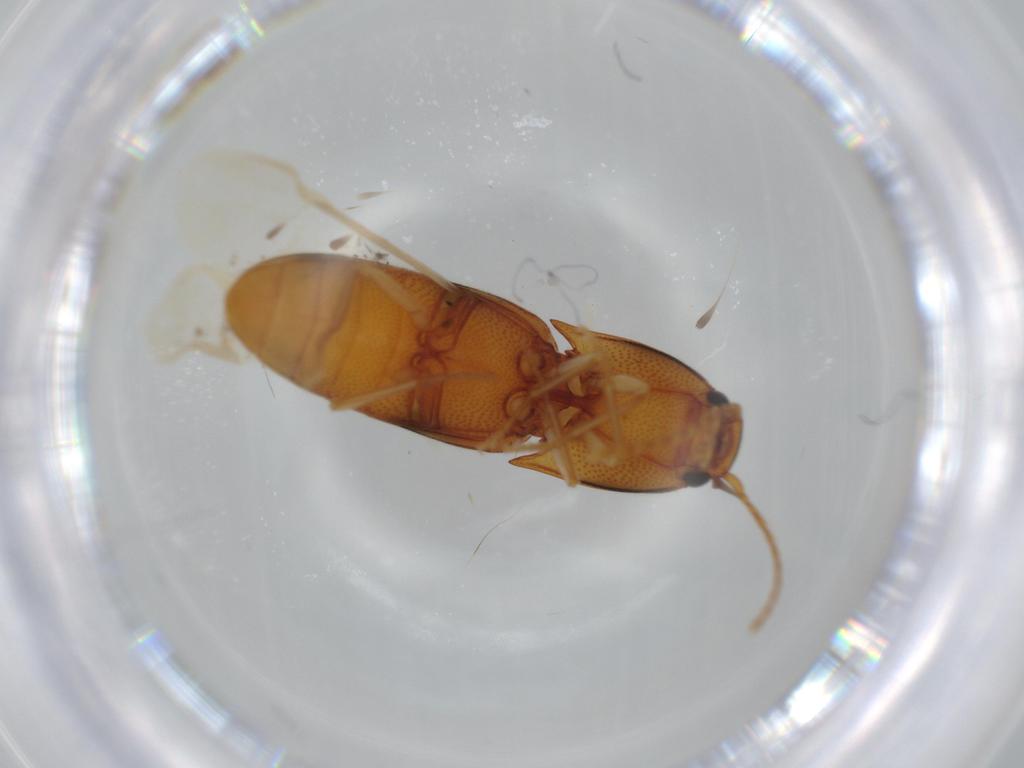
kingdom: Animalia
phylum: Arthropoda
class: Insecta
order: Coleoptera
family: Elateridae
